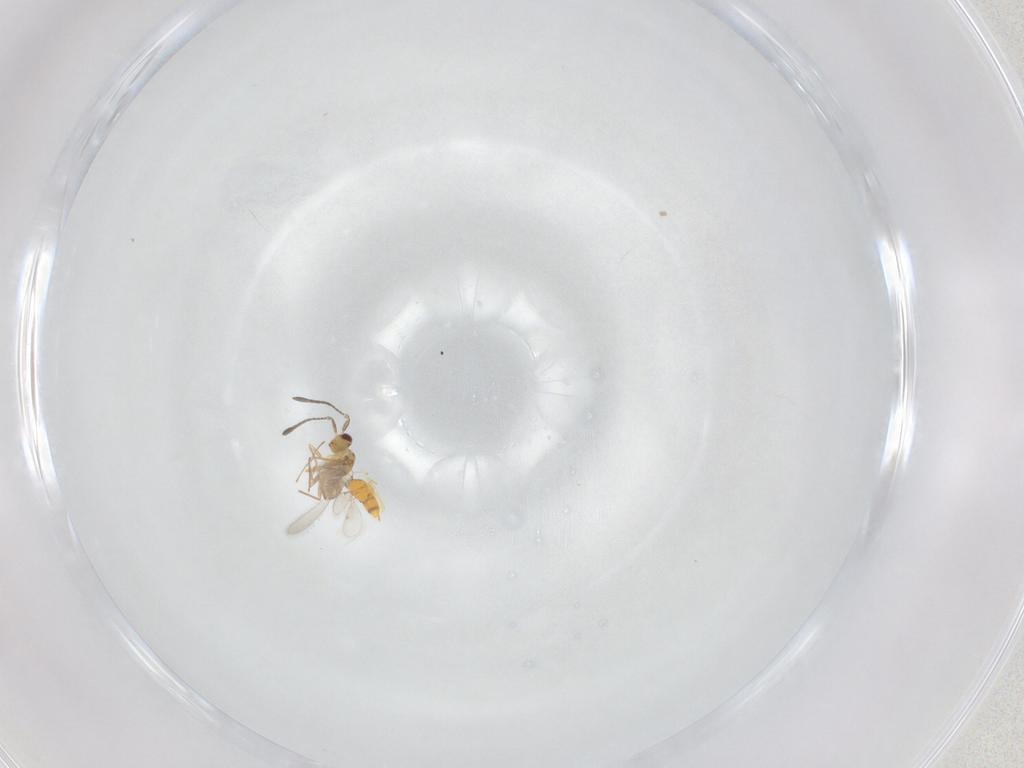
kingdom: Animalia
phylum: Arthropoda
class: Insecta
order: Hymenoptera
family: Aphelinidae
